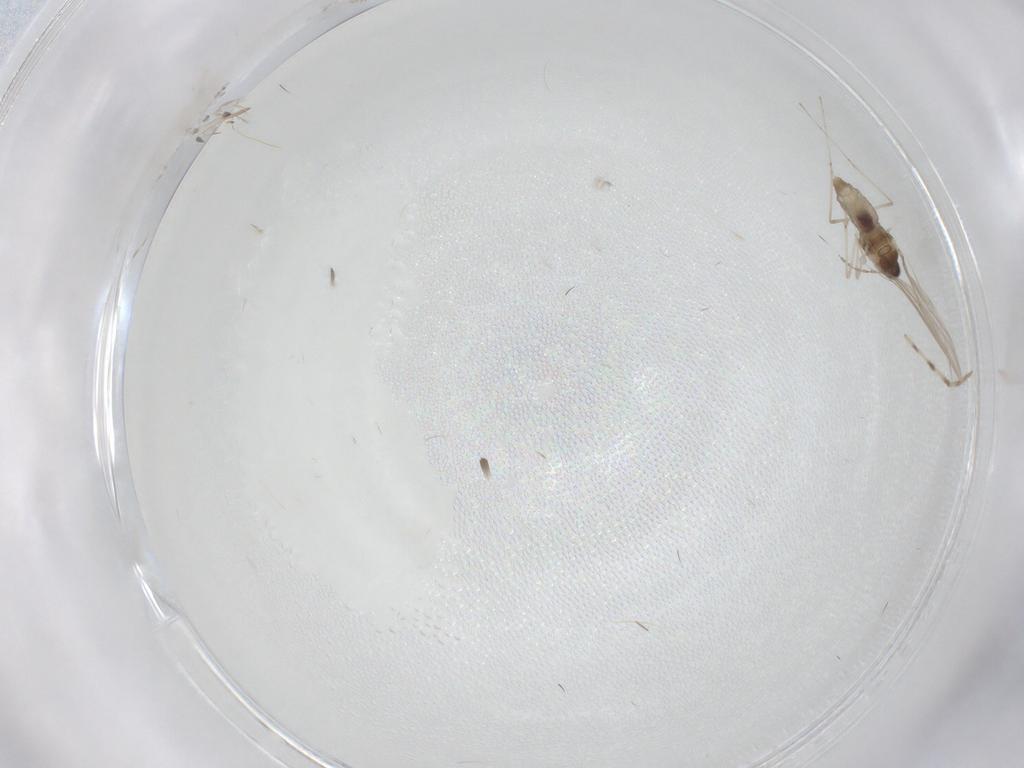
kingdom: Animalia
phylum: Arthropoda
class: Insecta
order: Diptera
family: Cecidomyiidae
